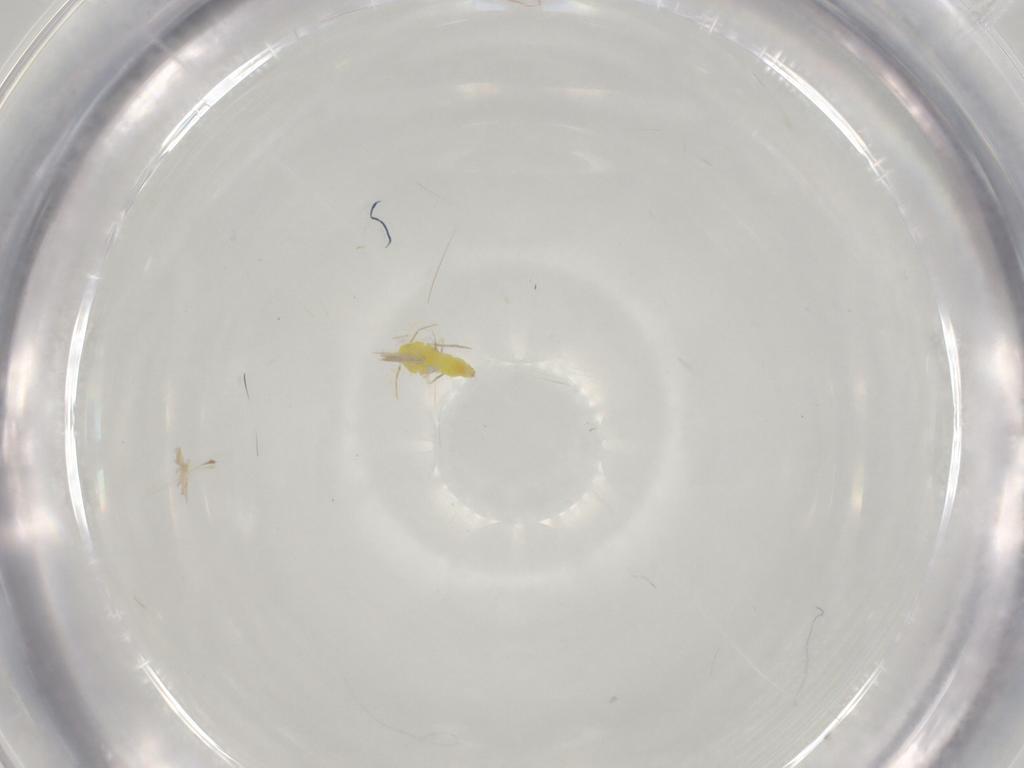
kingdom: Animalia
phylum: Arthropoda
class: Insecta
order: Hemiptera
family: Aleyrodidae
